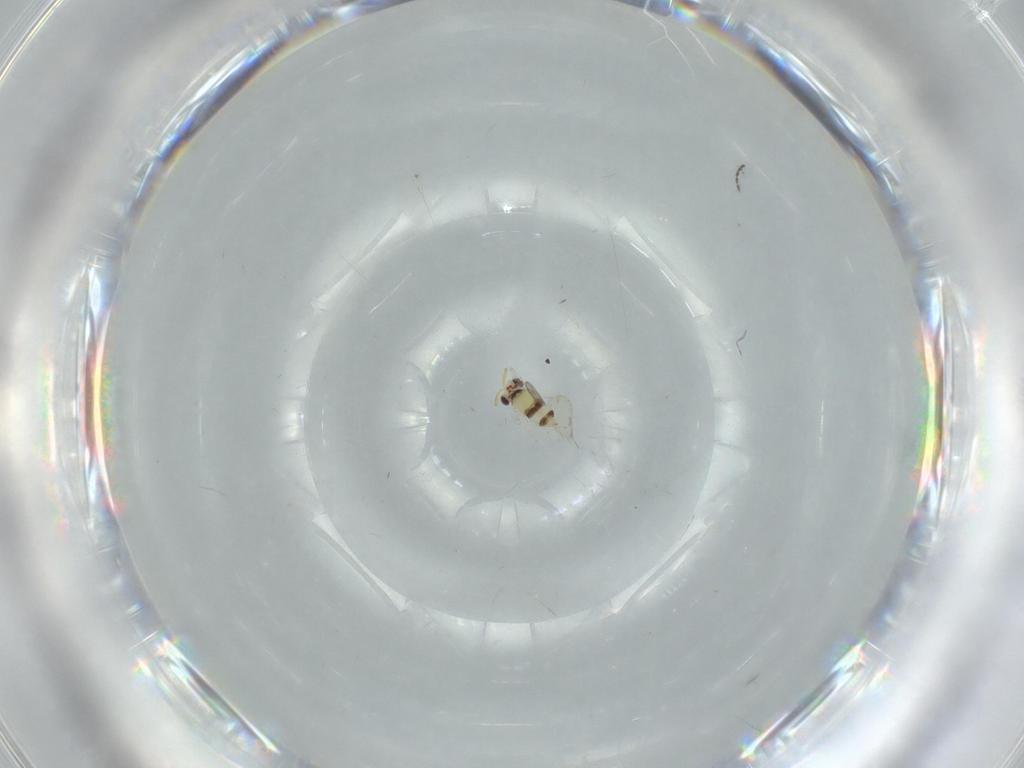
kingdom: Animalia
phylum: Arthropoda
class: Insecta
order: Hymenoptera
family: Aphelinidae
